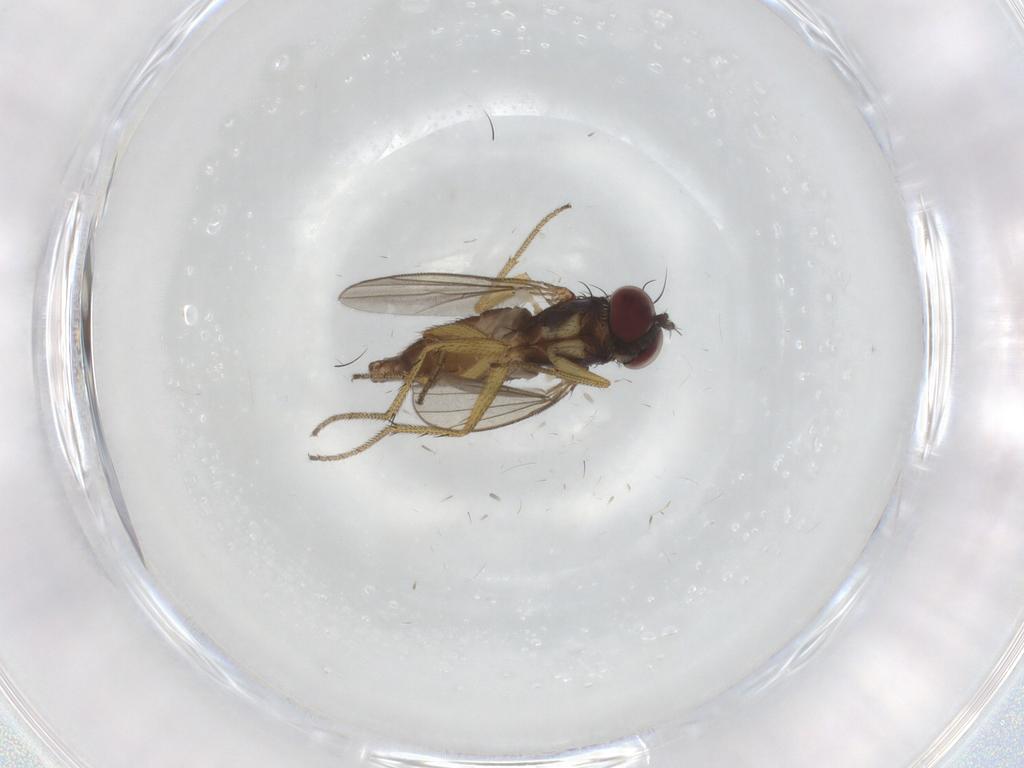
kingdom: Animalia
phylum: Arthropoda
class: Insecta
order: Diptera
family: Dolichopodidae
